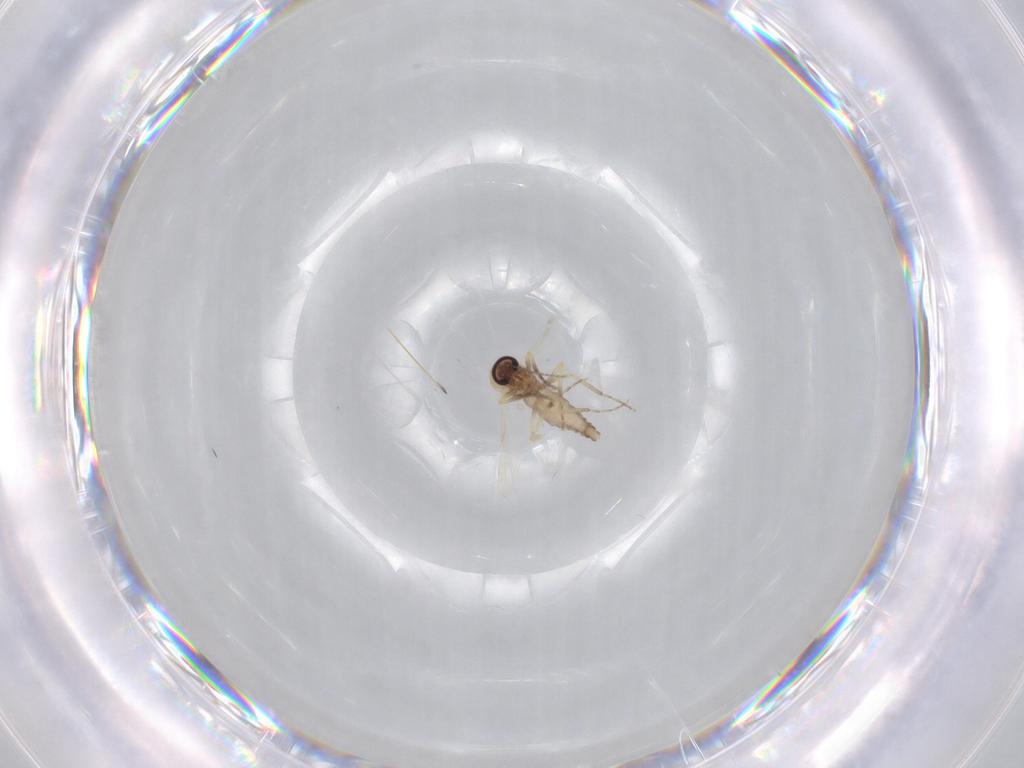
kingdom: Animalia
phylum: Arthropoda
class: Insecta
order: Diptera
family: Ceratopogonidae
